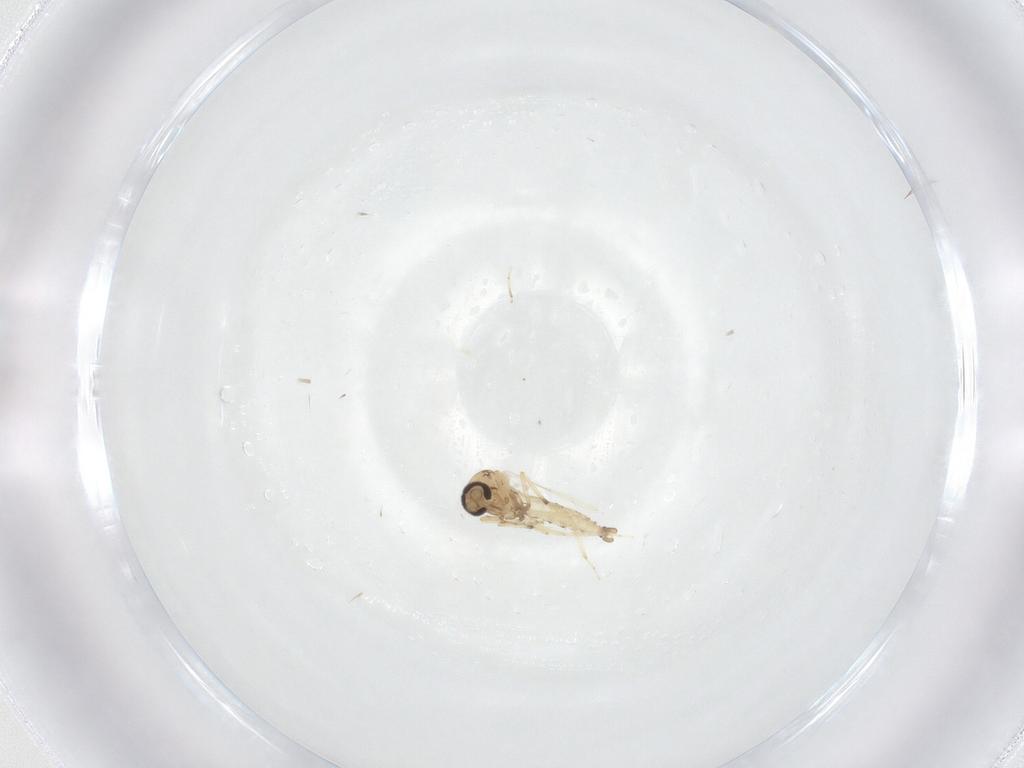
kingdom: Animalia
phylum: Arthropoda
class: Insecta
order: Diptera
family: Ceratopogonidae
